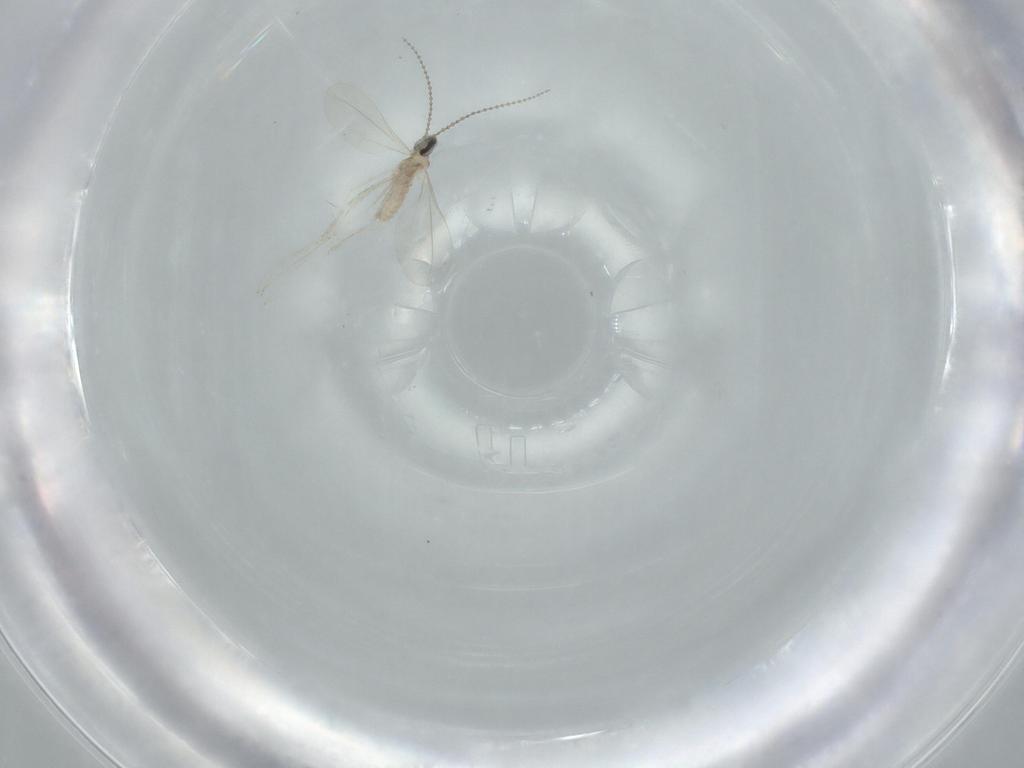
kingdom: Animalia
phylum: Arthropoda
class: Insecta
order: Diptera
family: Cecidomyiidae
